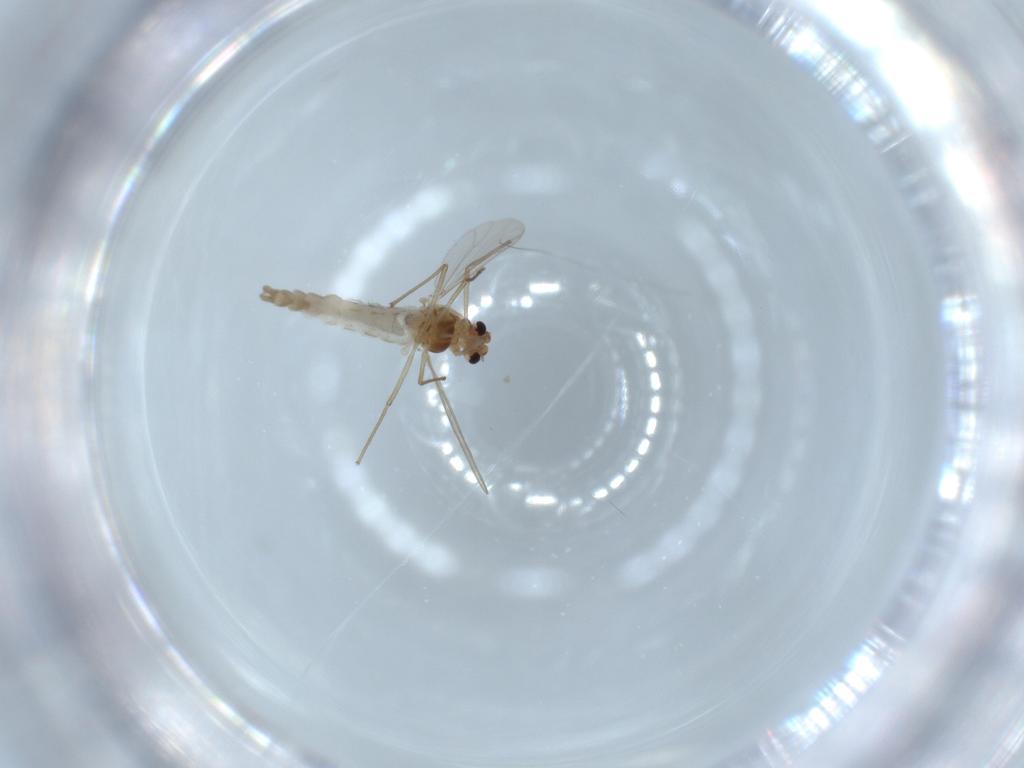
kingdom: Animalia
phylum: Arthropoda
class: Insecta
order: Diptera
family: Chironomidae
